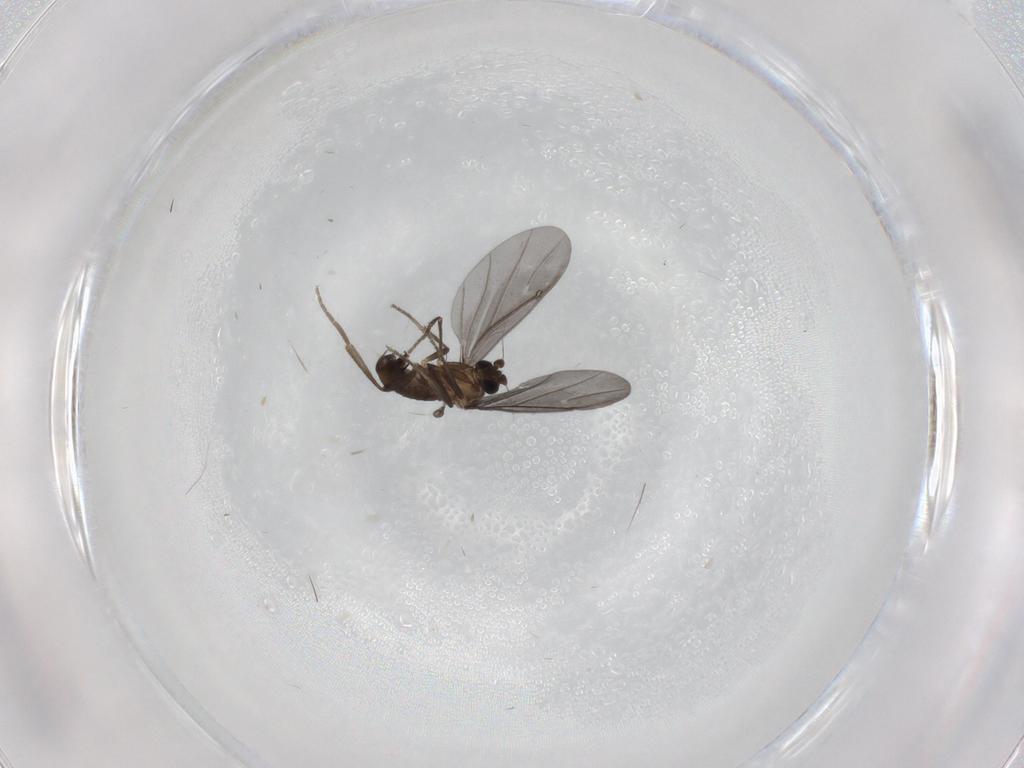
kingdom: Animalia
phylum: Arthropoda
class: Insecta
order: Diptera
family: Phoridae
